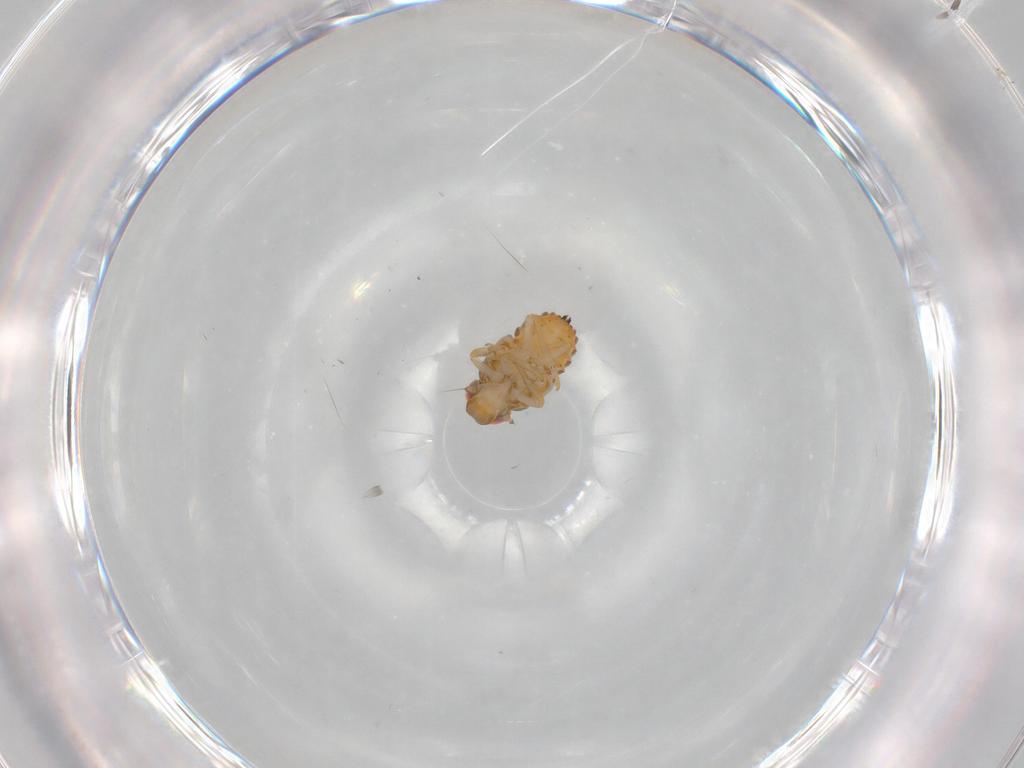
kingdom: Animalia
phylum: Arthropoda
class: Insecta
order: Hemiptera
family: Issidae
